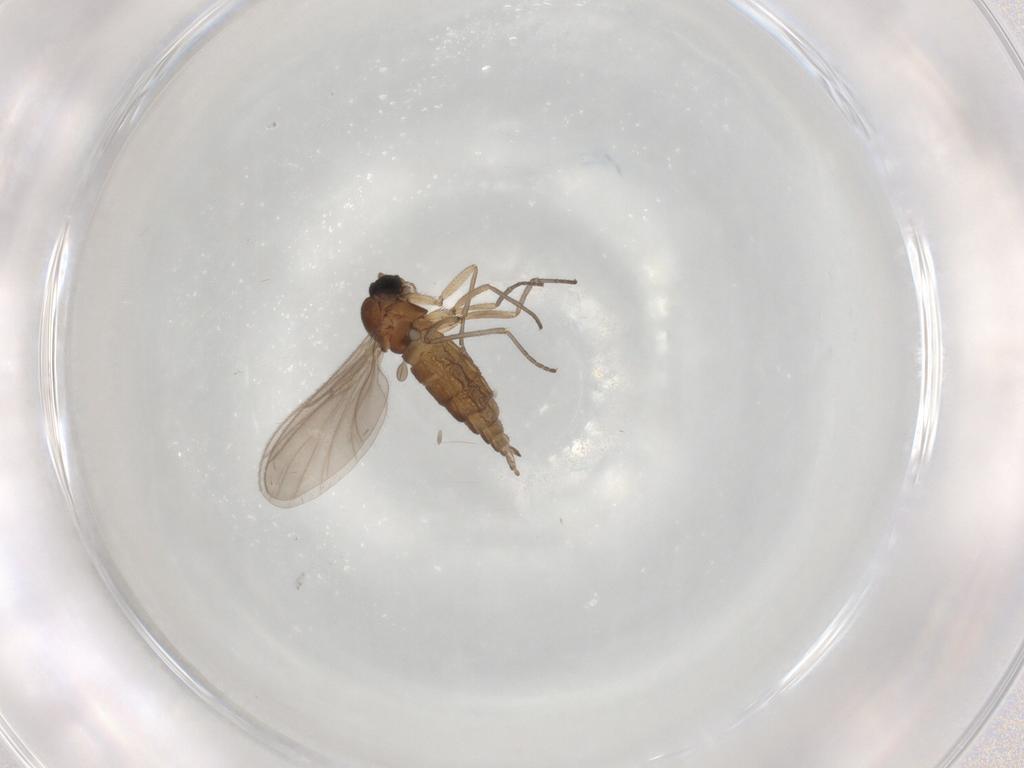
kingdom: Animalia
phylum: Arthropoda
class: Insecta
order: Diptera
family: Sciaridae
